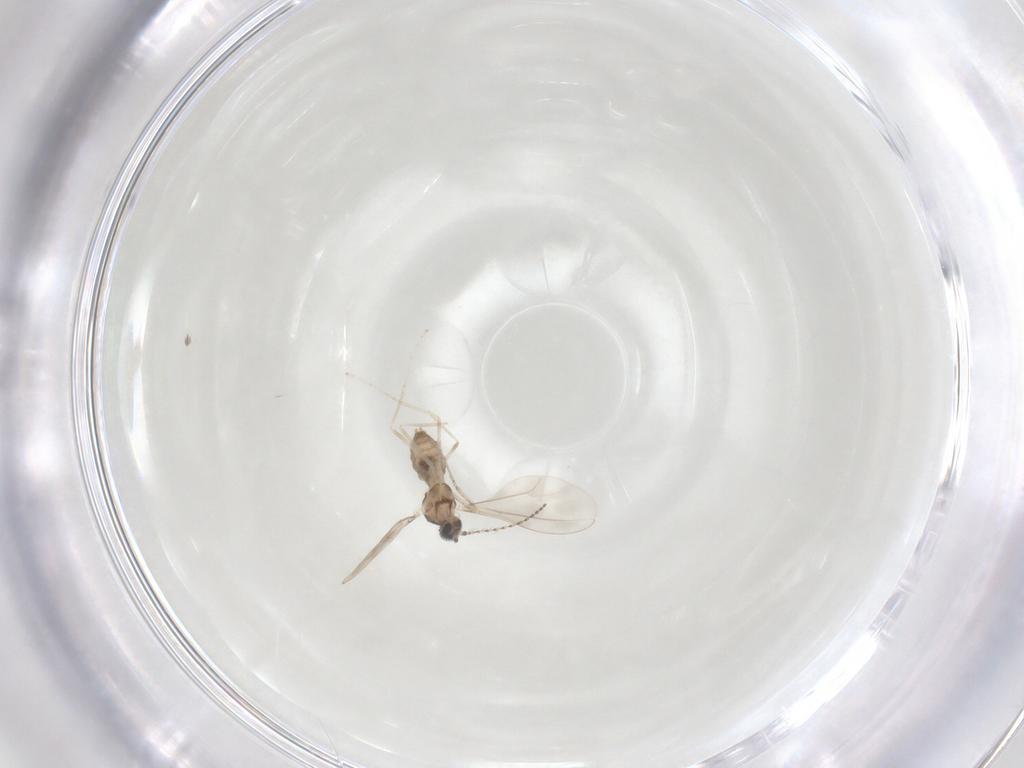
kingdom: Animalia
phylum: Arthropoda
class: Insecta
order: Diptera
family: Cecidomyiidae
